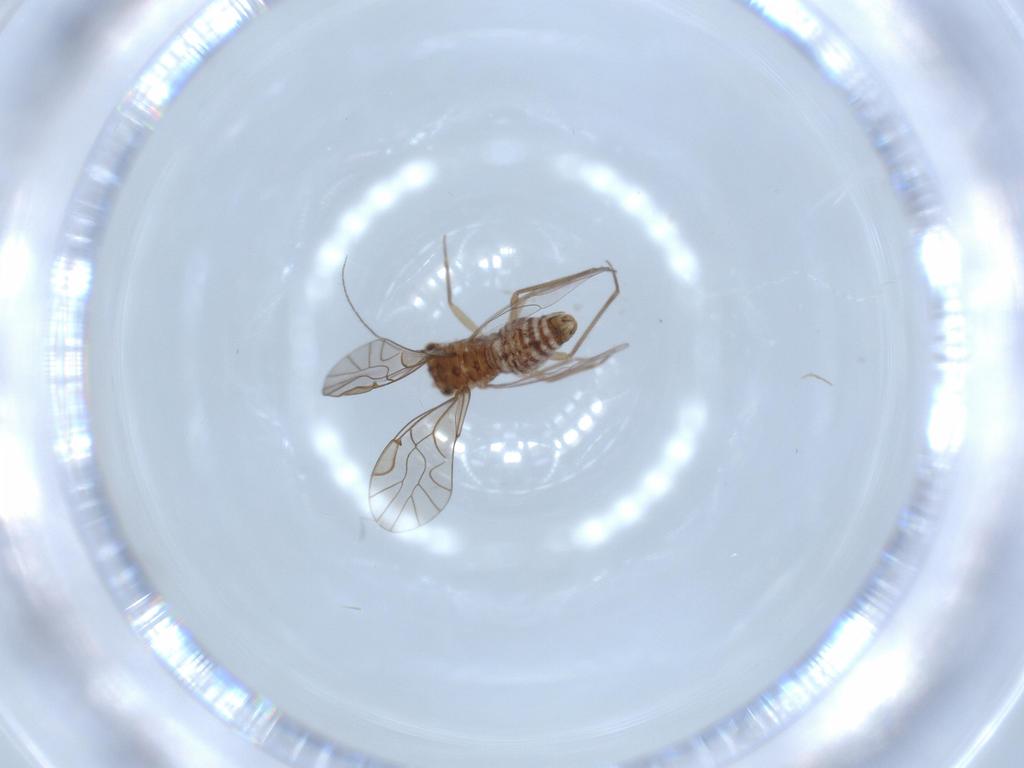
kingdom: Animalia
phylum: Arthropoda
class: Insecta
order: Psocodea
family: Lachesillidae
